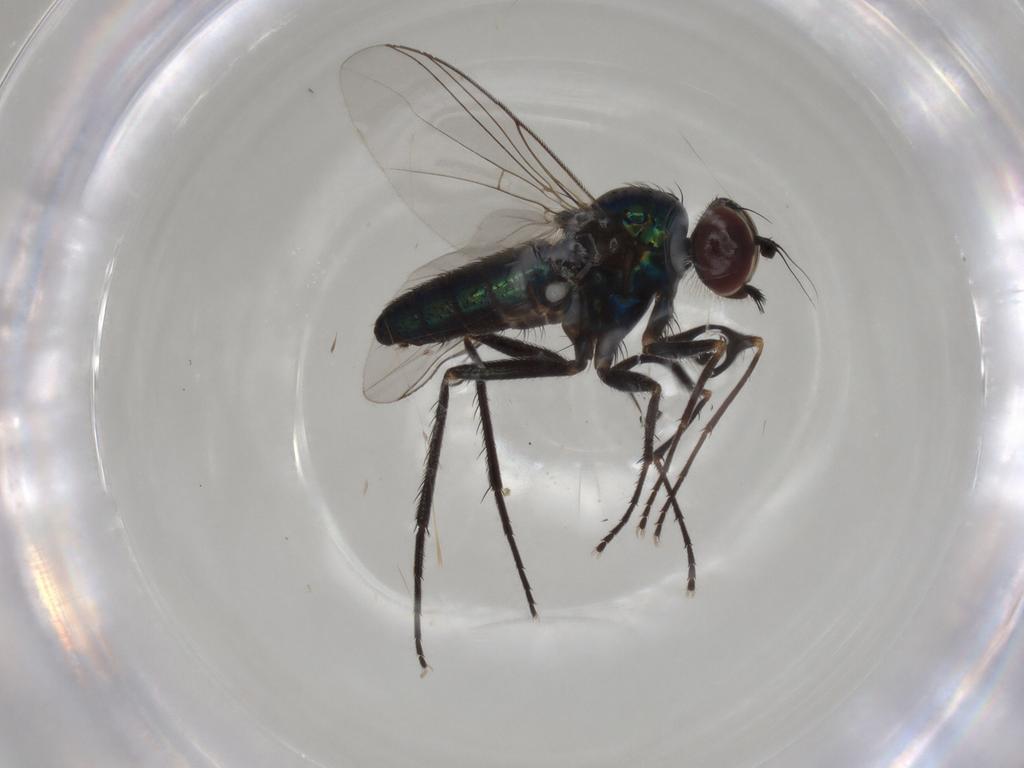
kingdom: Animalia
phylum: Arthropoda
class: Insecta
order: Diptera
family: Dolichopodidae
